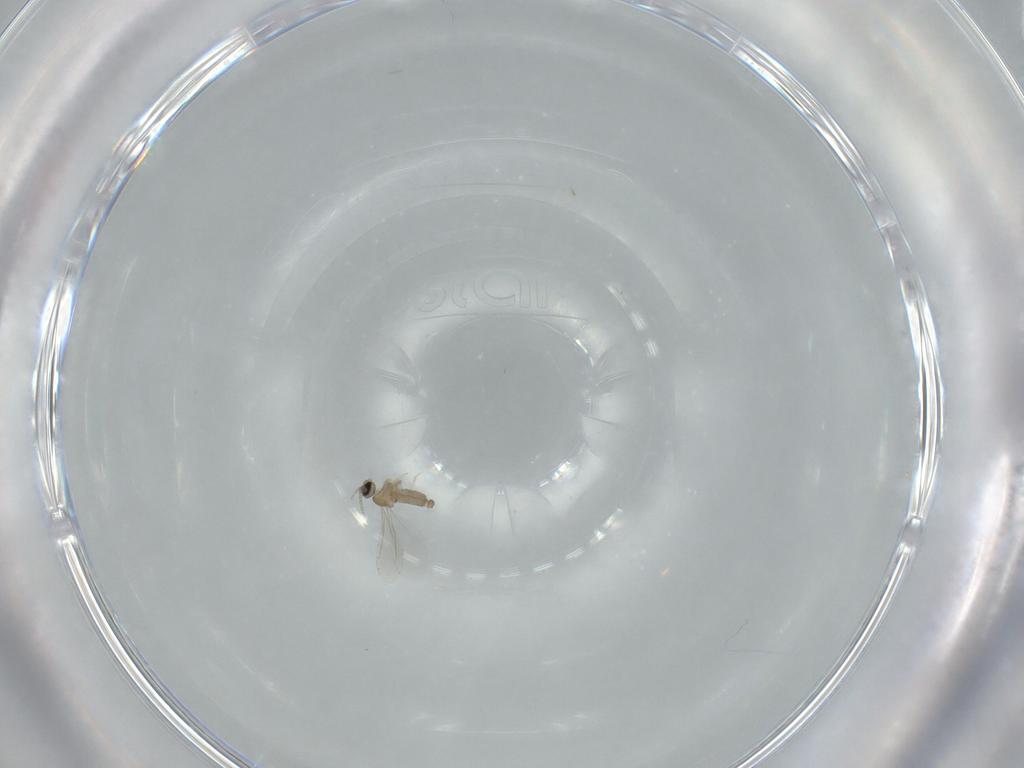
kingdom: Animalia
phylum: Arthropoda
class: Insecta
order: Diptera
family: Cecidomyiidae
